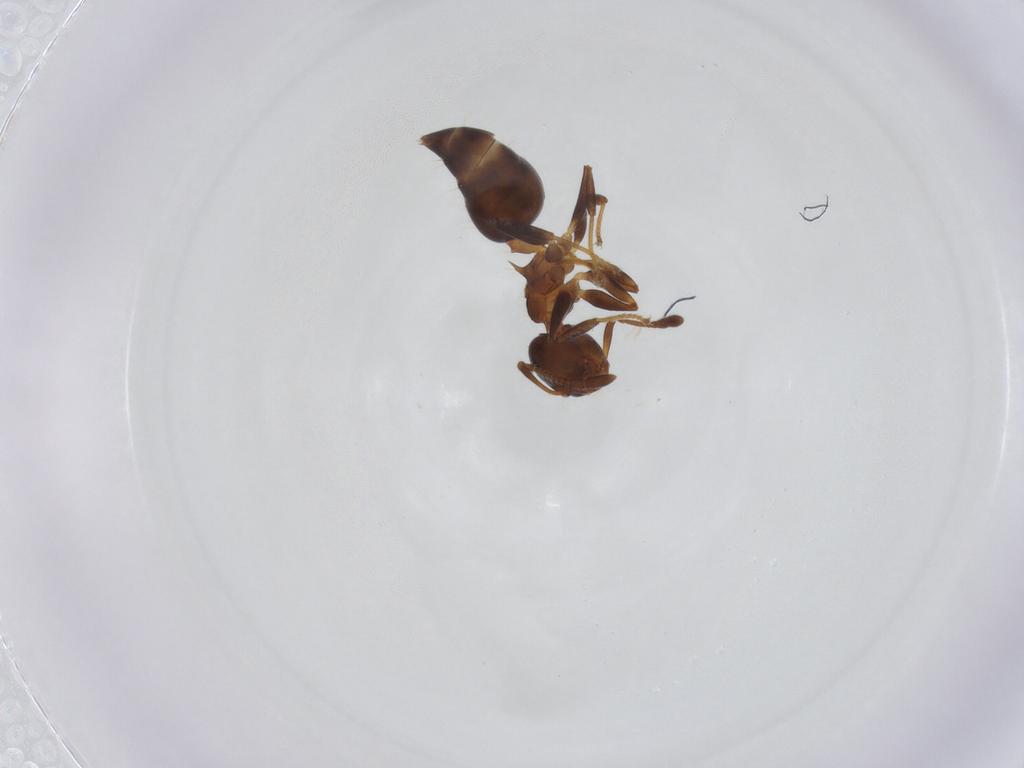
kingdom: Animalia
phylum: Arthropoda
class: Insecta
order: Hymenoptera
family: Formicidae
